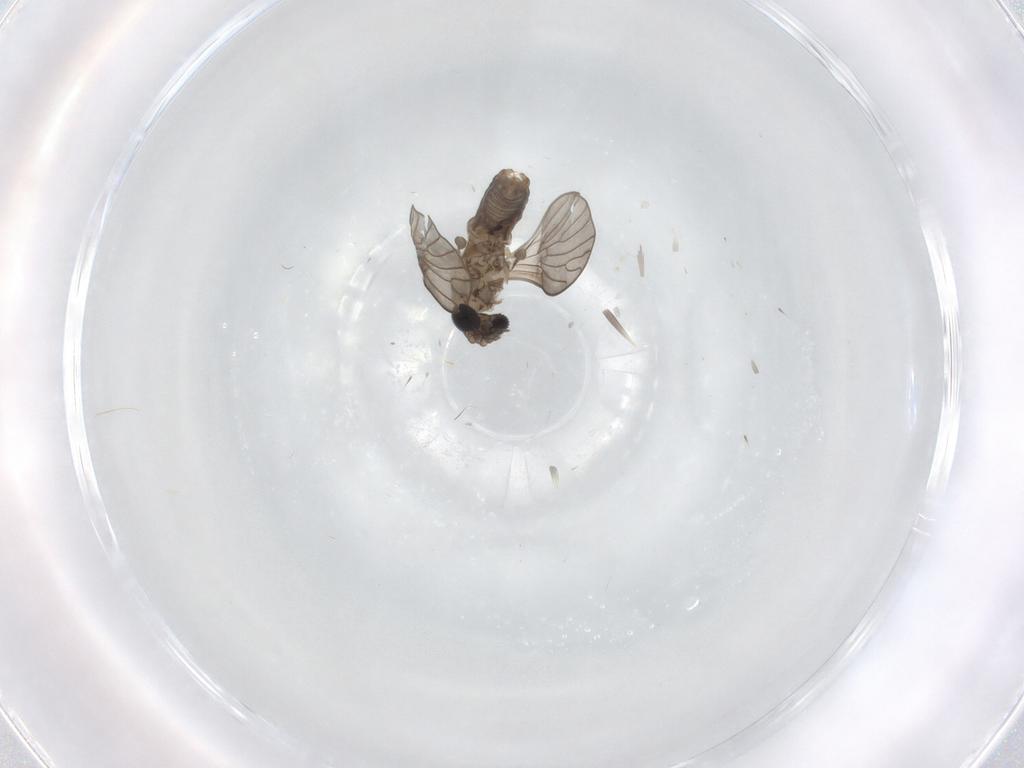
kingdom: Animalia
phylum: Arthropoda
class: Insecta
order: Diptera
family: Psychodidae
